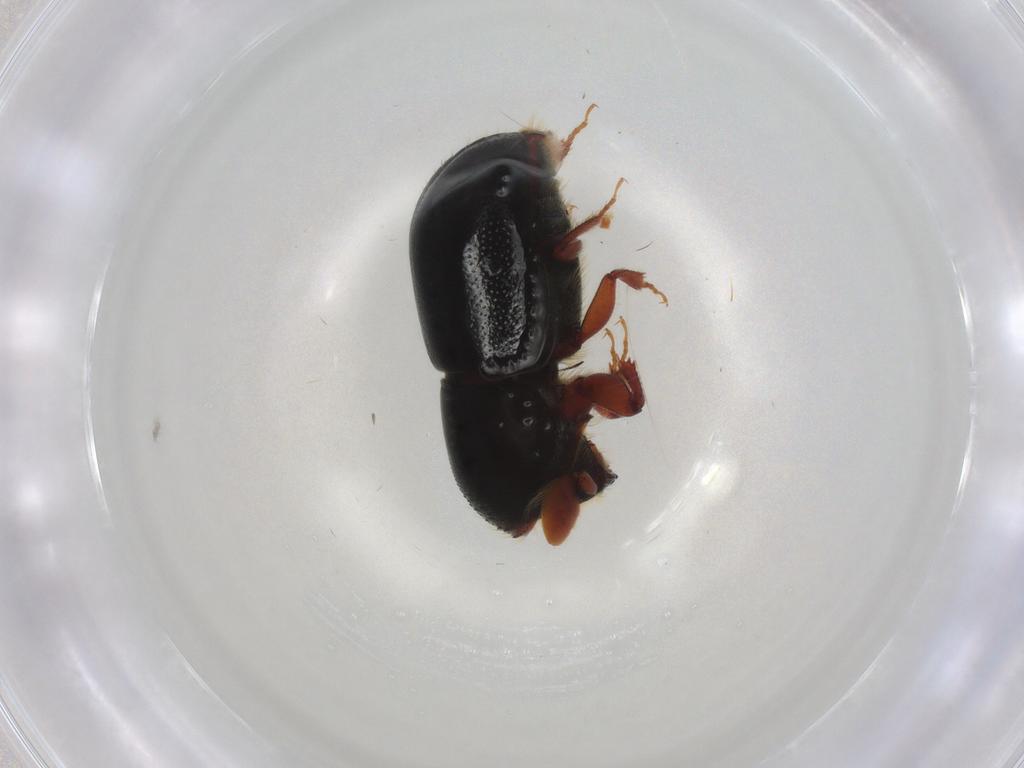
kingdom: Animalia
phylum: Arthropoda
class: Insecta
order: Coleoptera
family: Curculionidae
